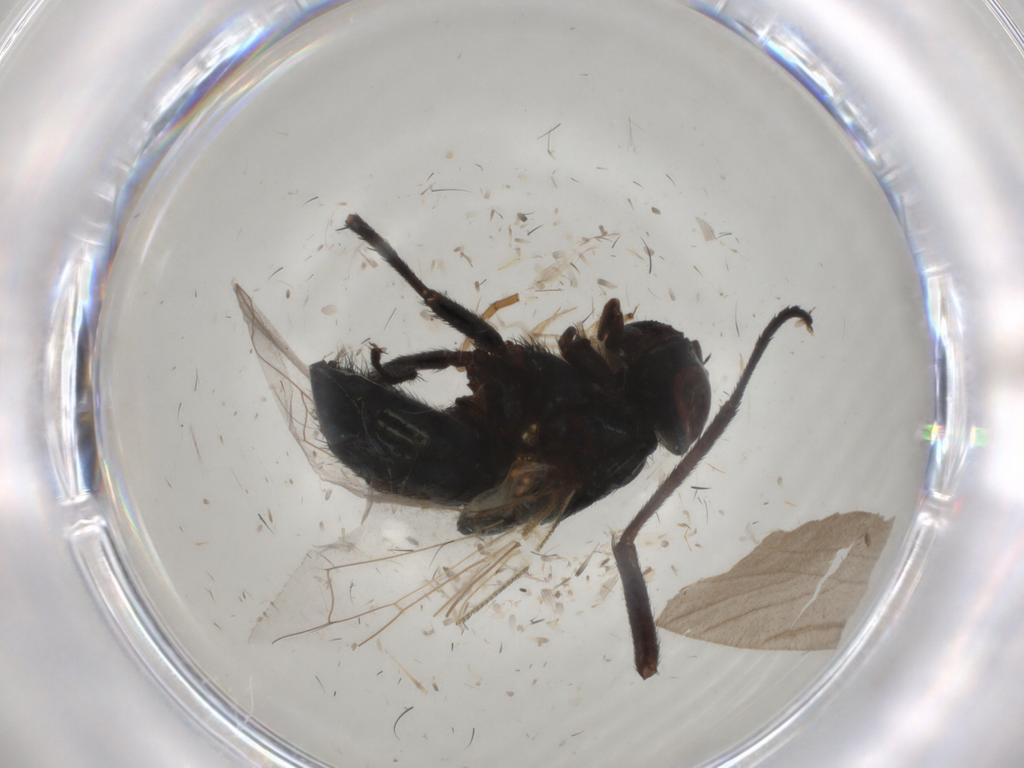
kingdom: Animalia
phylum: Arthropoda
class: Insecta
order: Diptera
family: Glossinidae
